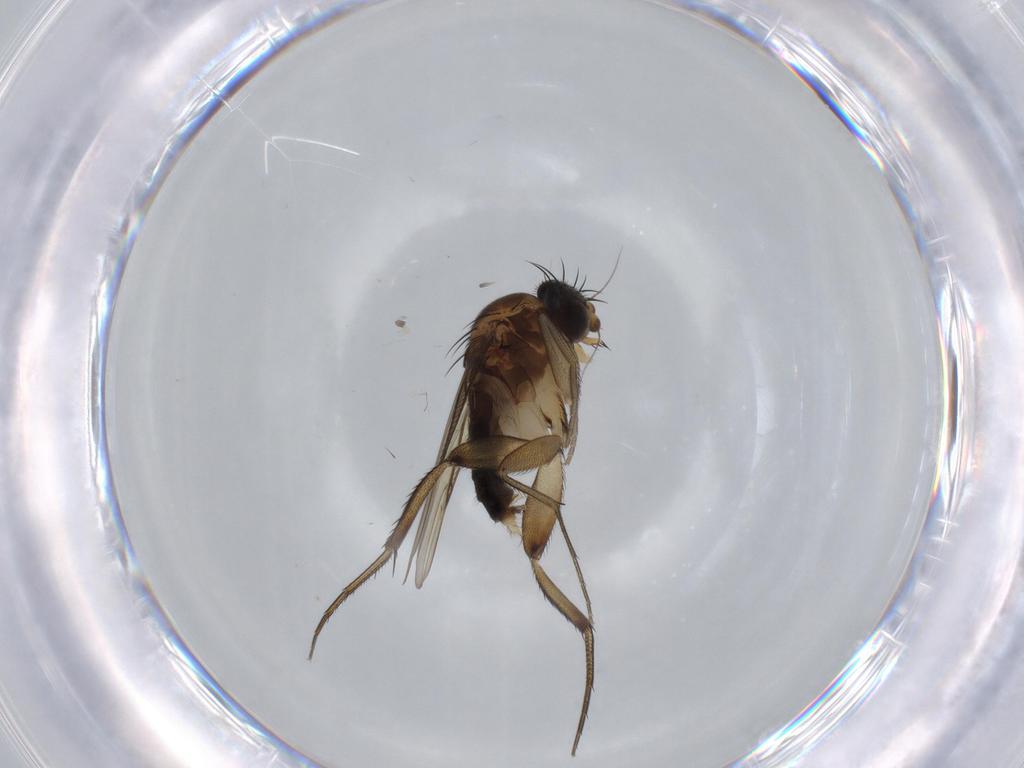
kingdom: Animalia
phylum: Arthropoda
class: Insecta
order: Diptera
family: Phoridae
